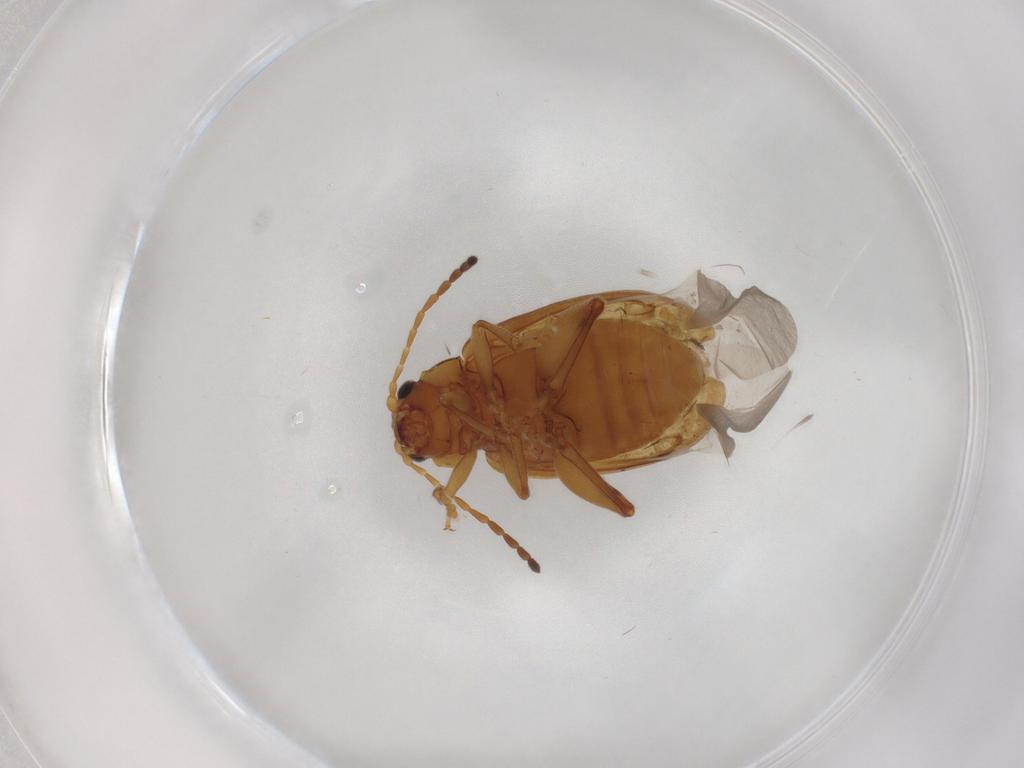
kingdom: Animalia
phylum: Arthropoda
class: Insecta
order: Coleoptera
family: Chrysomelidae
